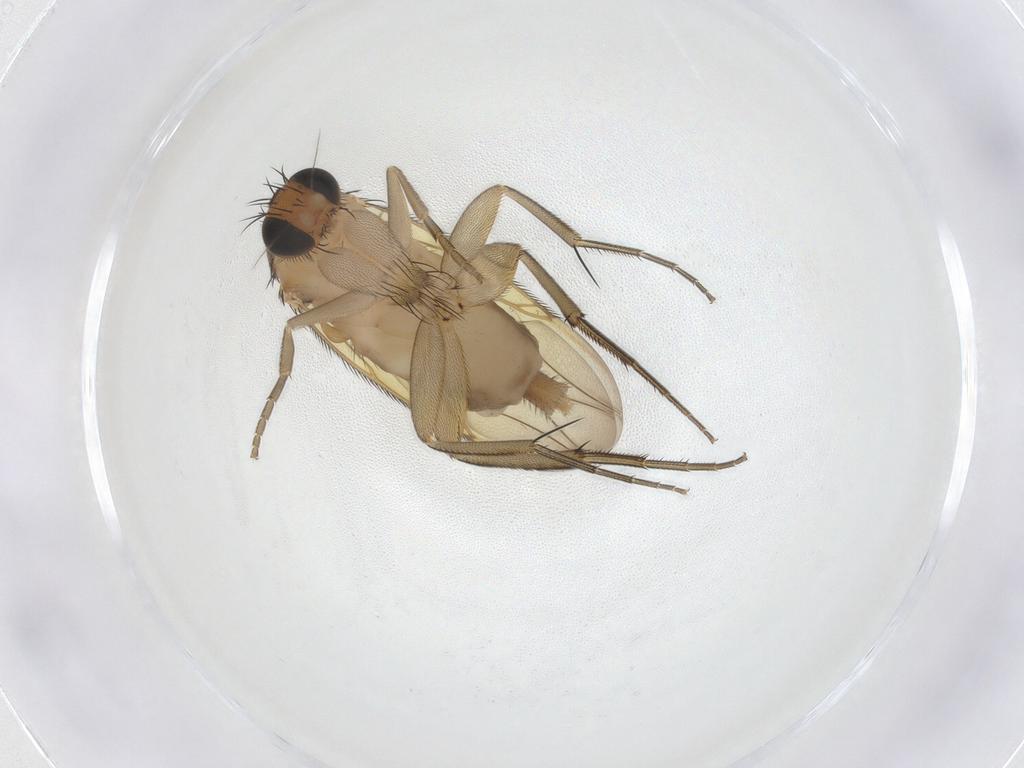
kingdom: Animalia
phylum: Arthropoda
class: Insecta
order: Diptera
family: Phoridae
